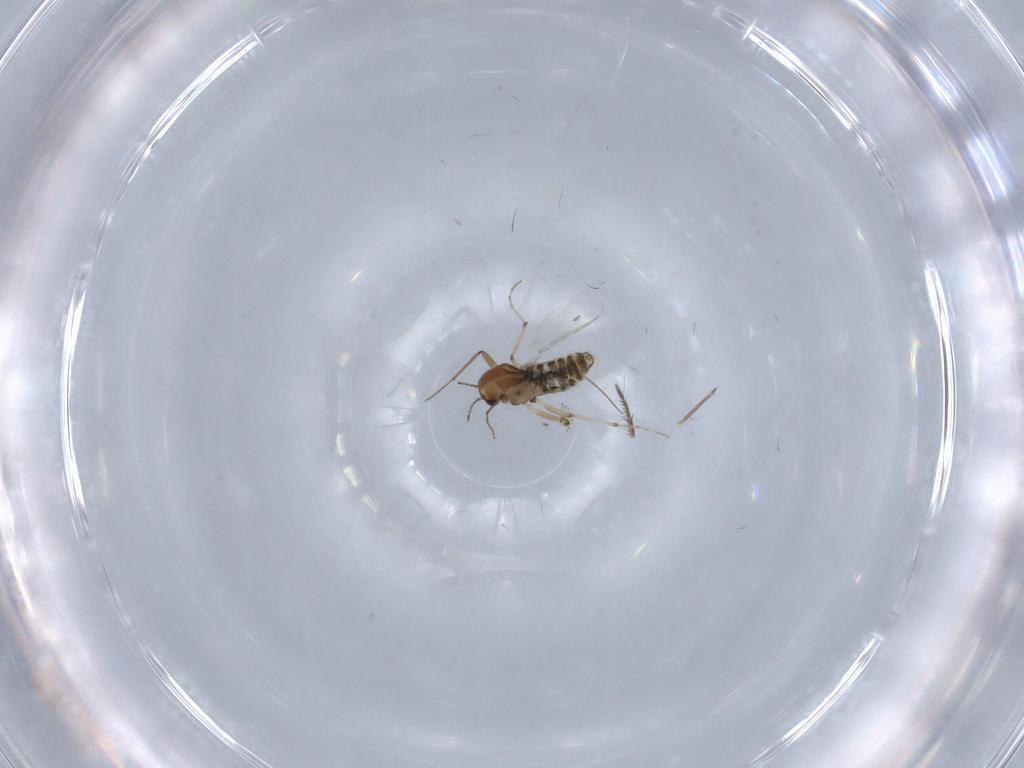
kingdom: Animalia
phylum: Arthropoda
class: Insecta
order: Diptera
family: Chironomidae
